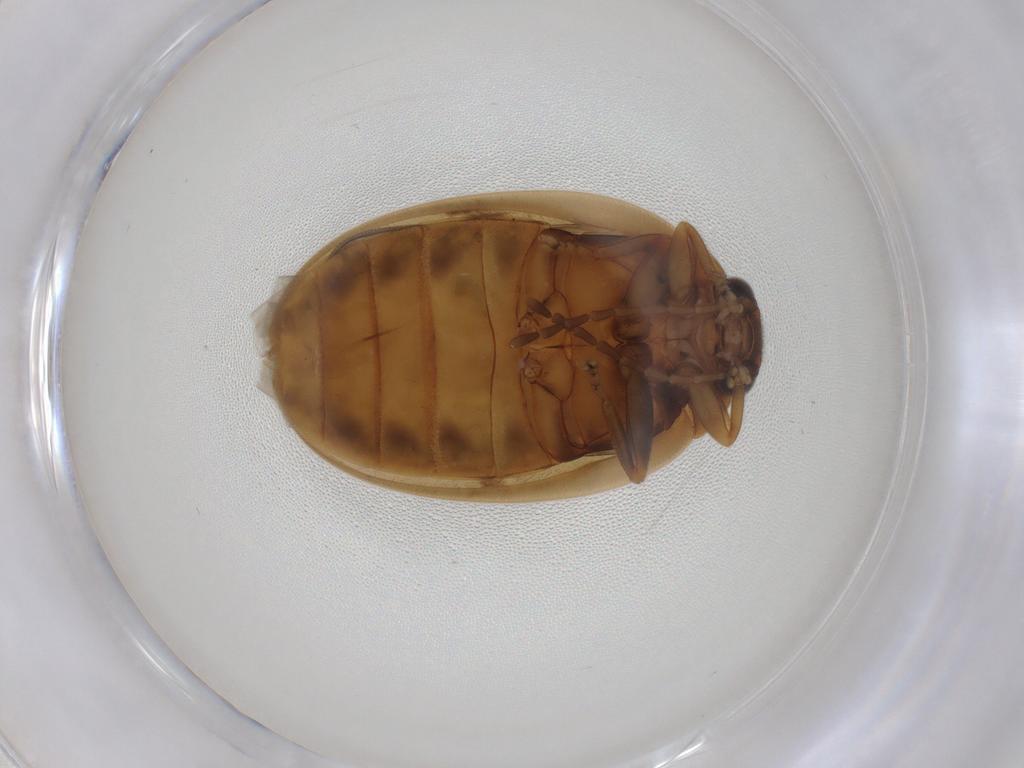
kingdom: Animalia
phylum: Arthropoda
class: Insecta
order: Coleoptera
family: Scirtidae
